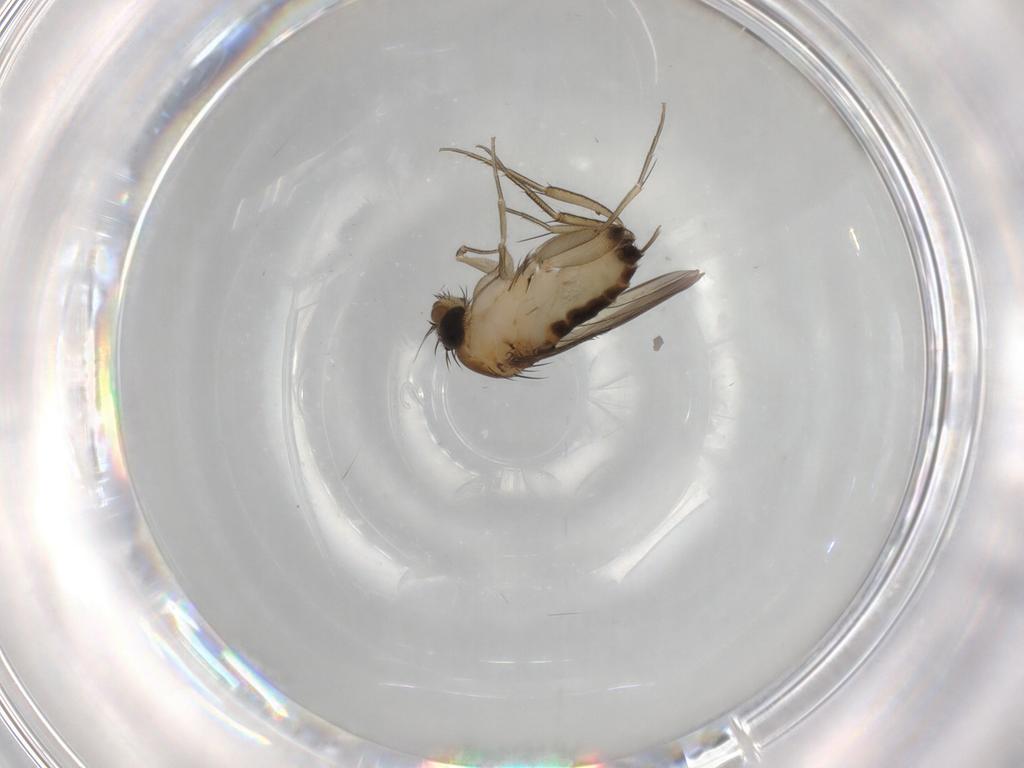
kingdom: Animalia
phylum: Arthropoda
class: Insecta
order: Diptera
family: Phoridae
